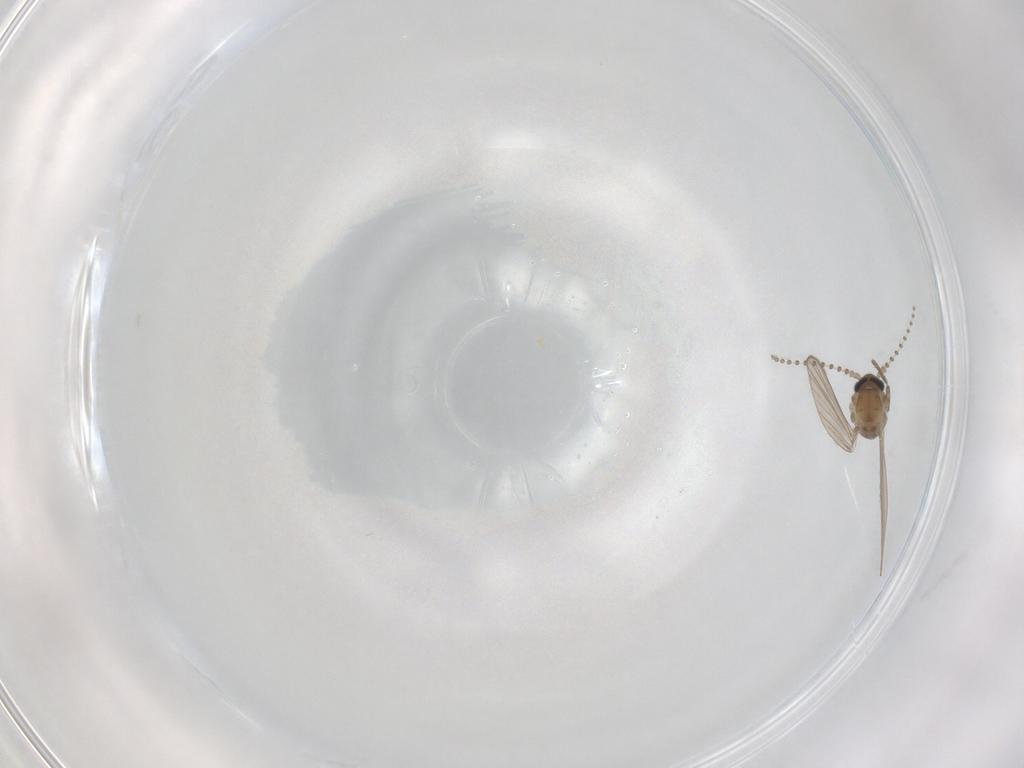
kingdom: Animalia
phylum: Arthropoda
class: Insecta
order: Diptera
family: Psychodidae
